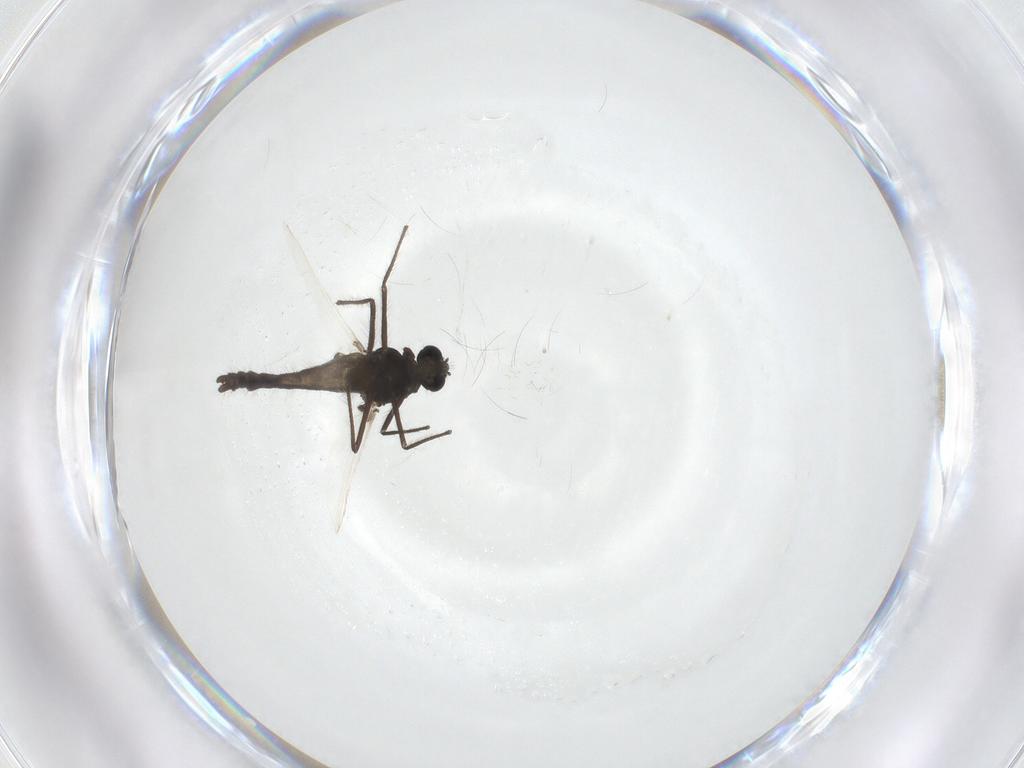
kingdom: Animalia
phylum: Arthropoda
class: Insecta
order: Diptera
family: Chironomidae
